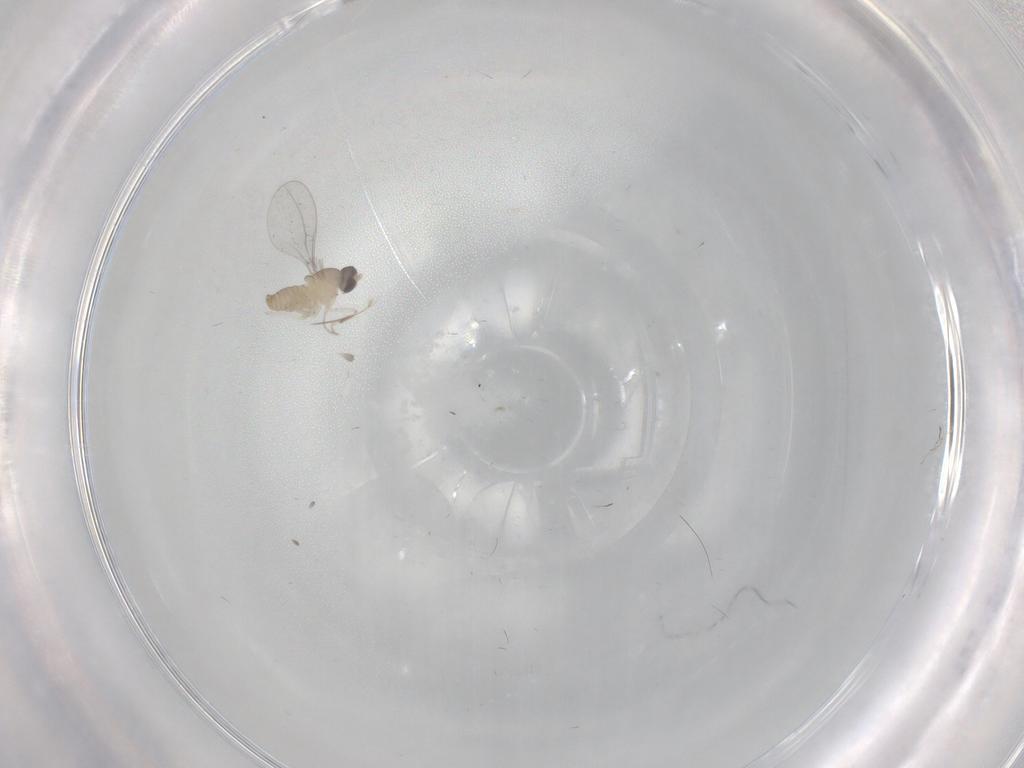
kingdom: Animalia
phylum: Arthropoda
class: Insecta
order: Diptera
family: Cecidomyiidae
